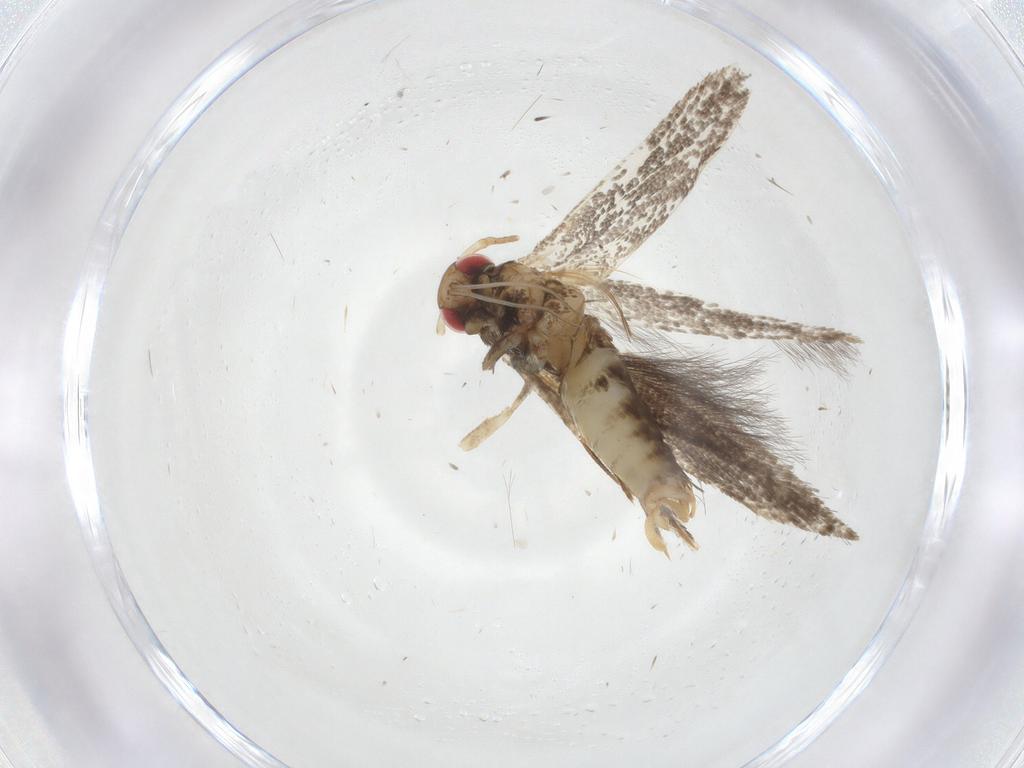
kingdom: Animalia
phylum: Arthropoda
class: Insecta
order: Lepidoptera
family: Gelechiidae
